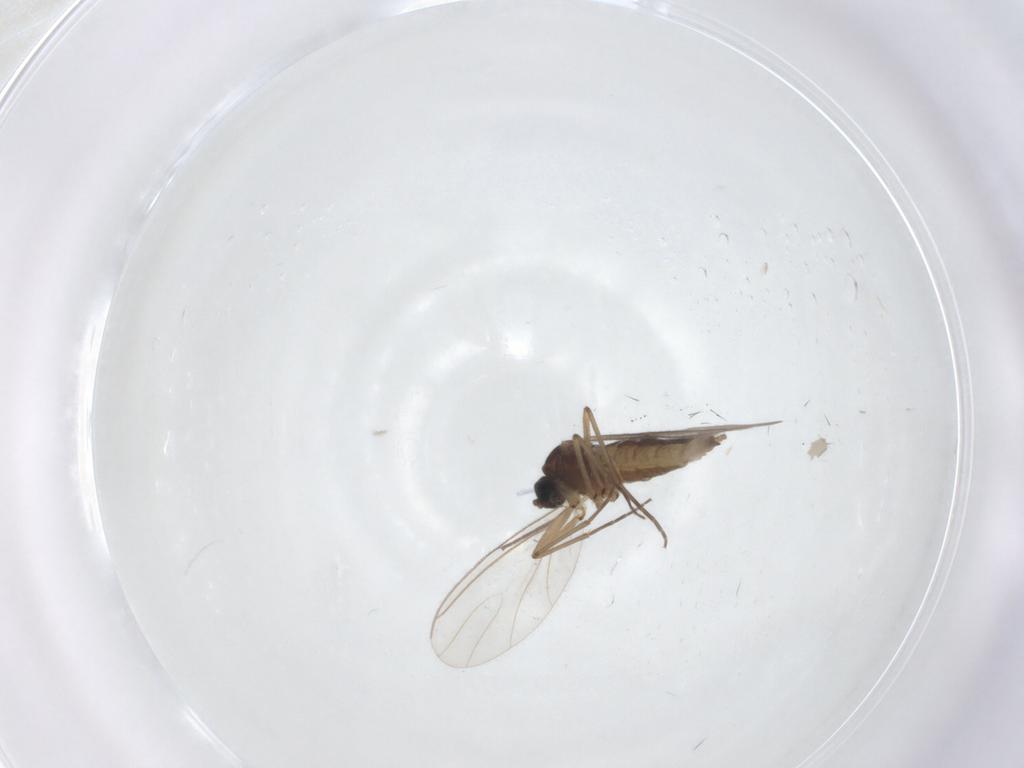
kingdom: Animalia
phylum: Arthropoda
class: Insecta
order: Diptera
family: Sciaridae
